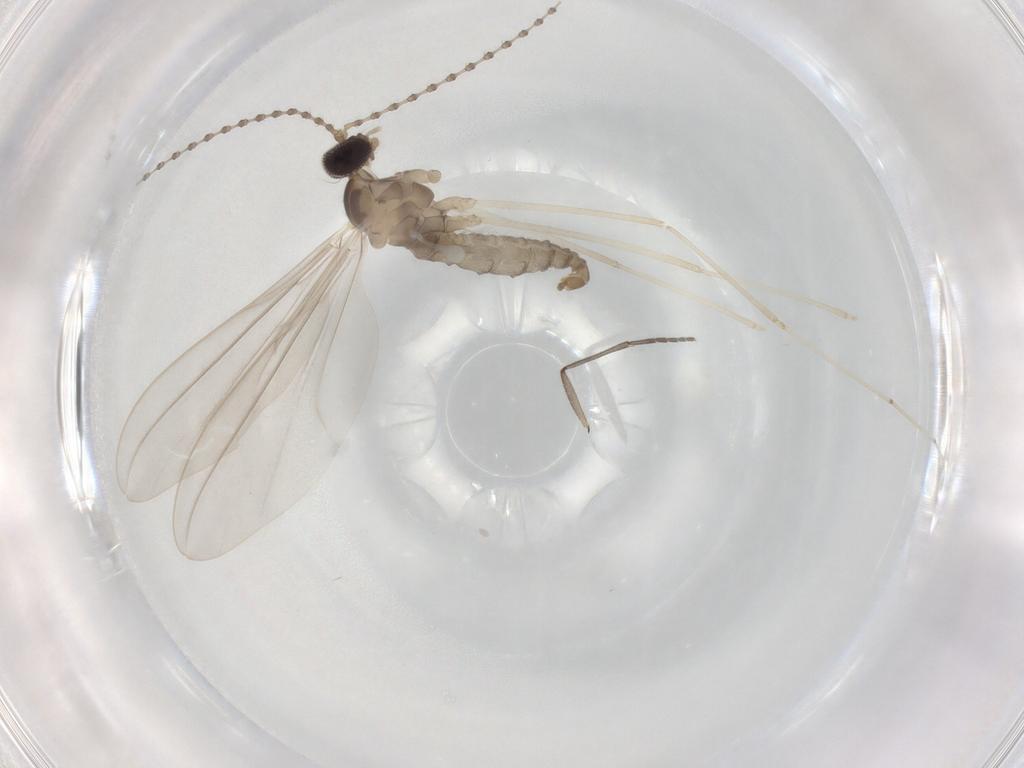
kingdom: Animalia
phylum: Arthropoda
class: Insecta
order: Diptera
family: Cecidomyiidae
